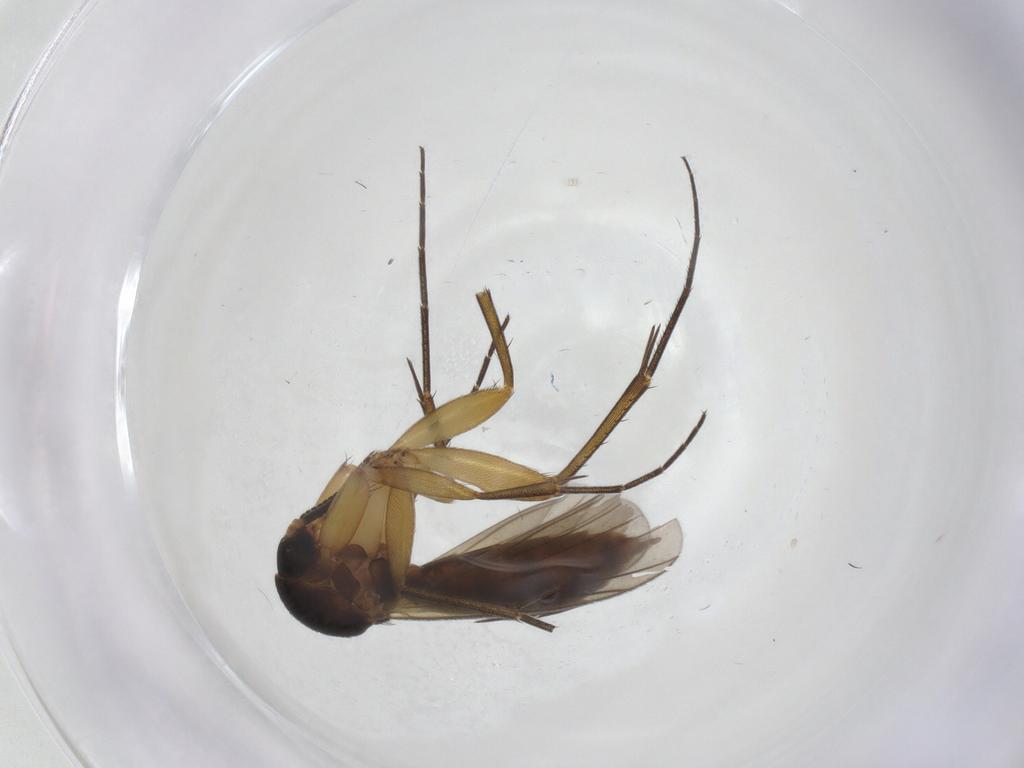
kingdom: Animalia
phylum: Arthropoda
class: Insecta
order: Diptera
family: Mycetophilidae
